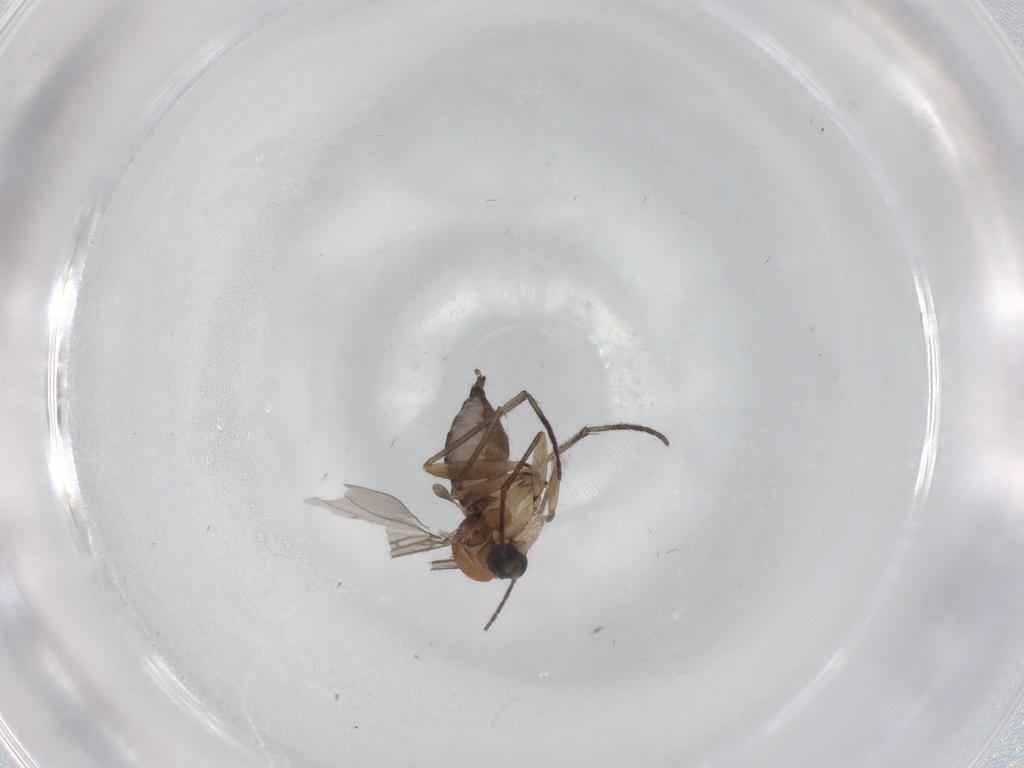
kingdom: Animalia
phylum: Arthropoda
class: Insecta
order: Diptera
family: Sciaridae
